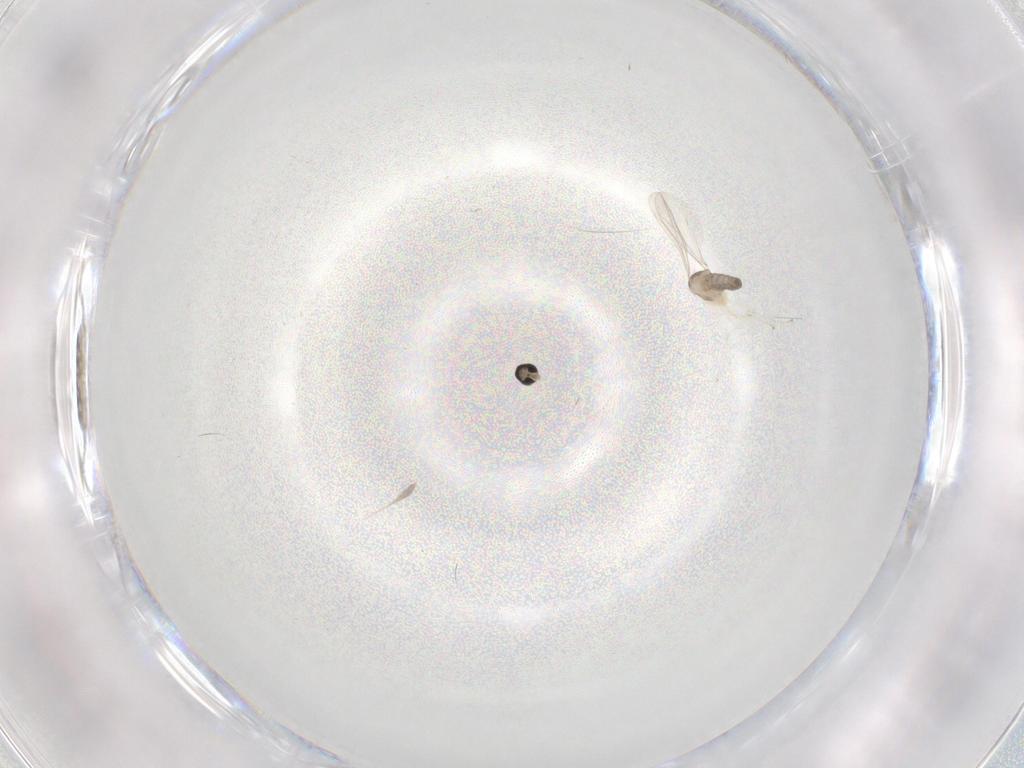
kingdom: Animalia
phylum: Arthropoda
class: Insecta
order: Diptera
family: Cecidomyiidae
